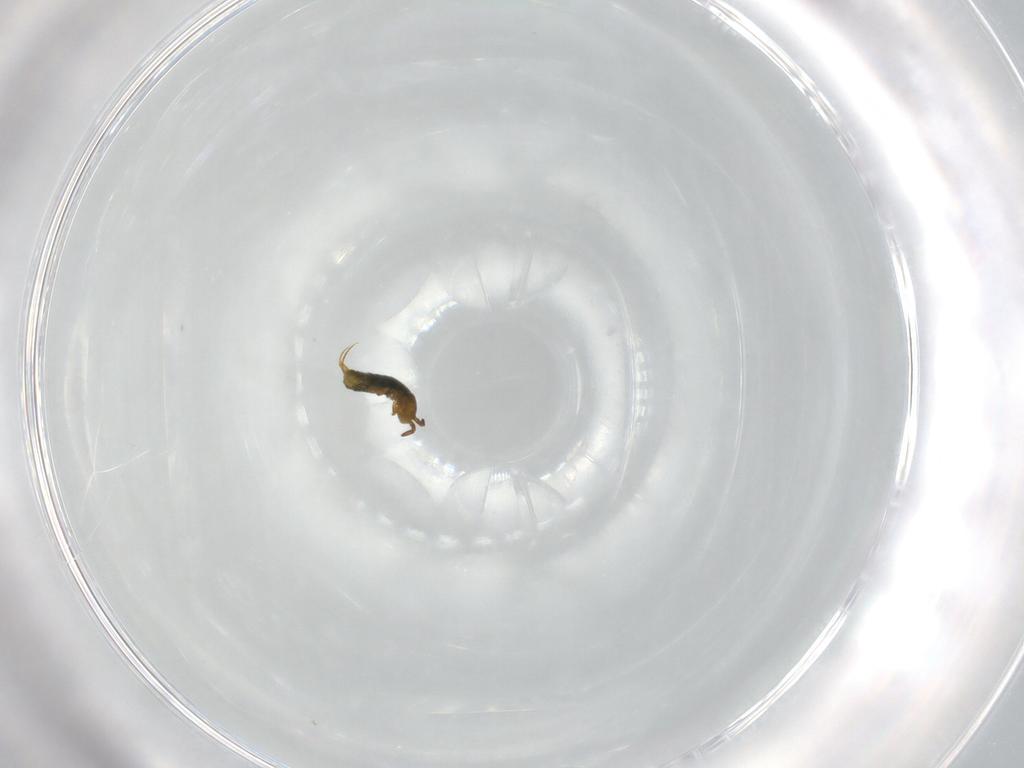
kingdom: Animalia
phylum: Arthropoda
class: Collembola
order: Entomobryomorpha
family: Isotomidae
